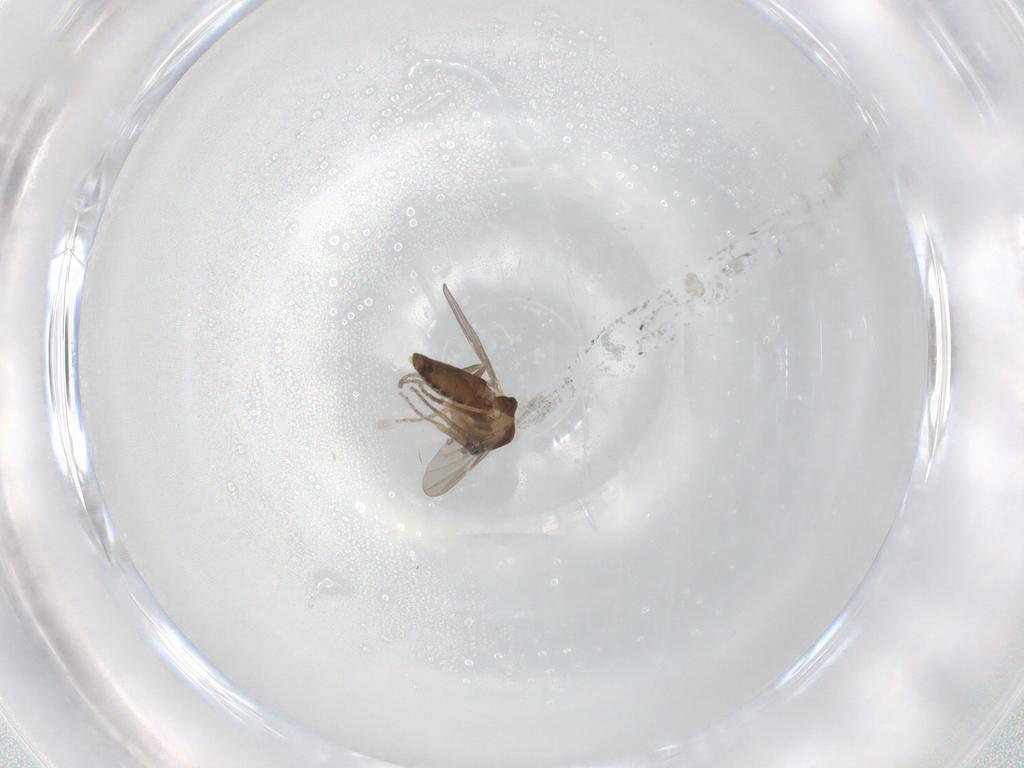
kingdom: Animalia
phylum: Arthropoda
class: Insecta
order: Diptera
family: Ceratopogonidae
